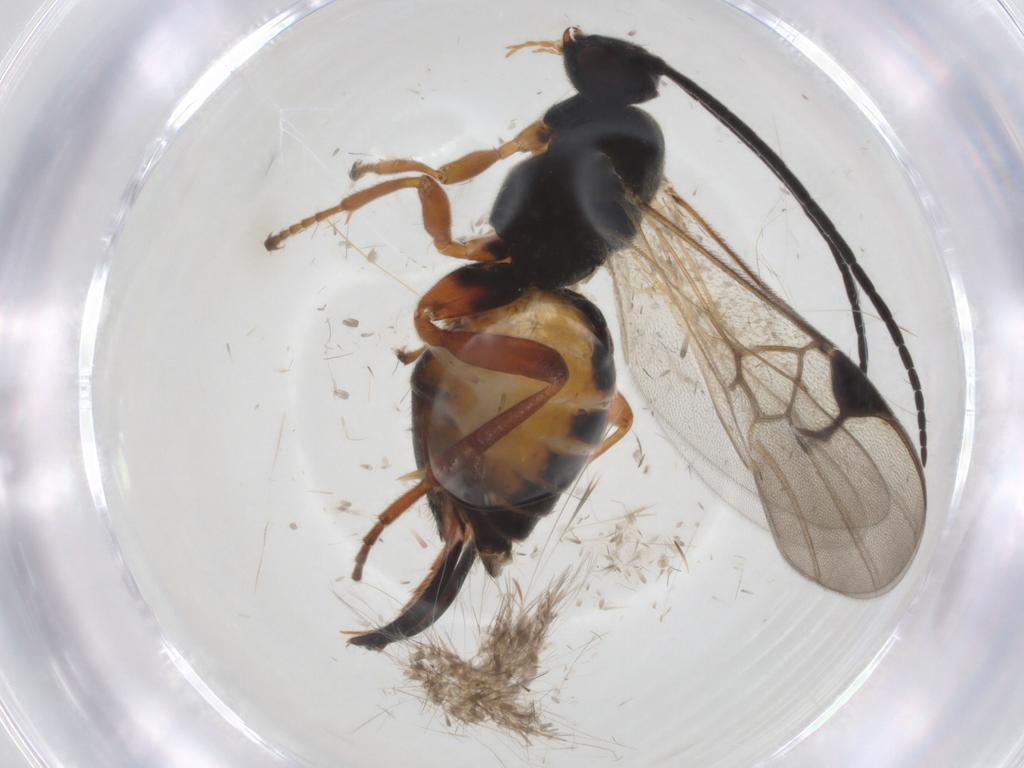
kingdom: Animalia
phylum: Arthropoda
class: Insecta
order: Lepidoptera
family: Tortricidae
